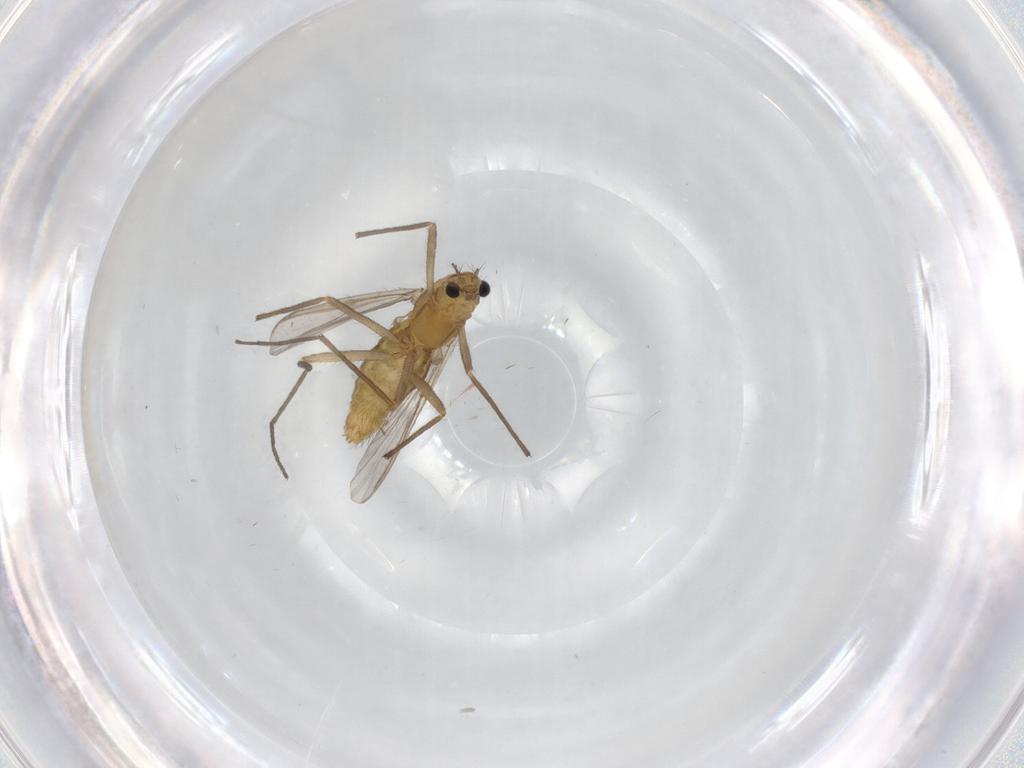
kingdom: Animalia
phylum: Arthropoda
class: Insecta
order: Diptera
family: Chironomidae
